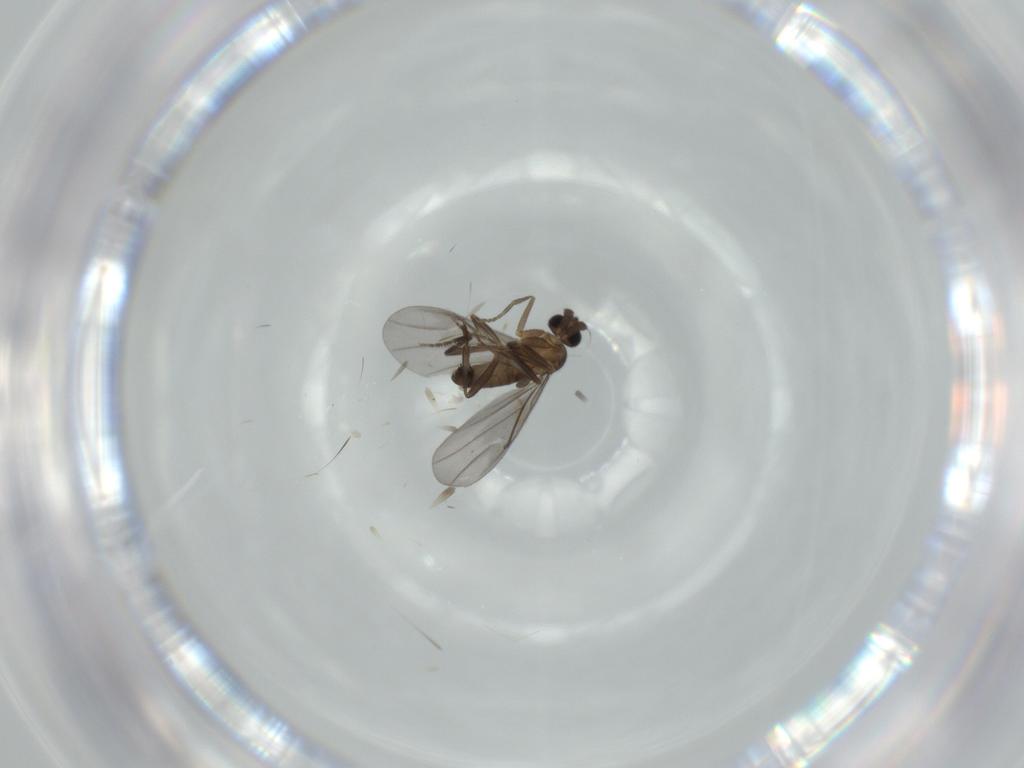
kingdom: Animalia
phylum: Arthropoda
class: Insecta
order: Diptera
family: Phoridae
